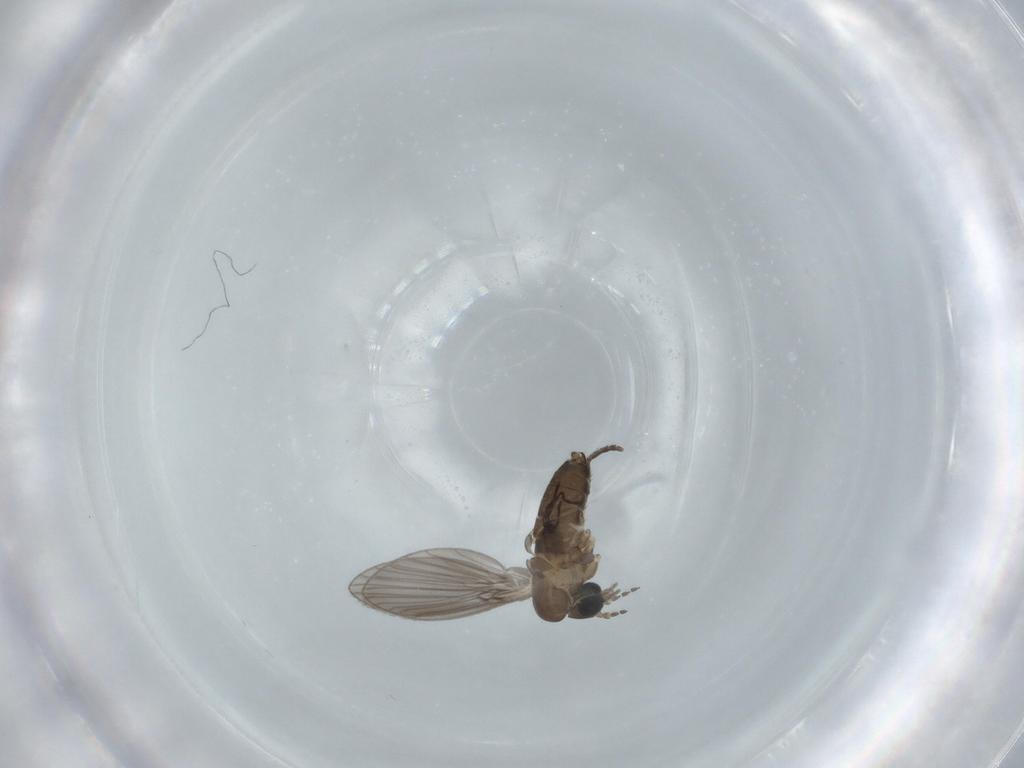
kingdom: Animalia
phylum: Arthropoda
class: Insecta
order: Diptera
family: Psychodidae
